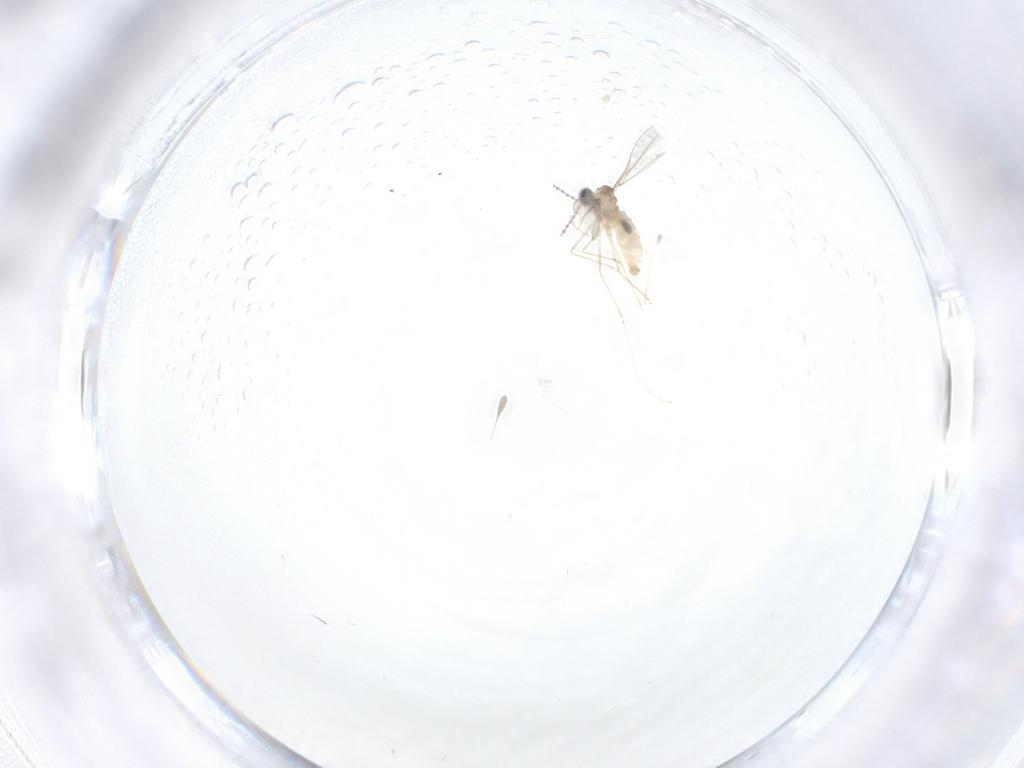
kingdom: Animalia
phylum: Arthropoda
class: Insecta
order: Diptera
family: Cecidomyiidae
